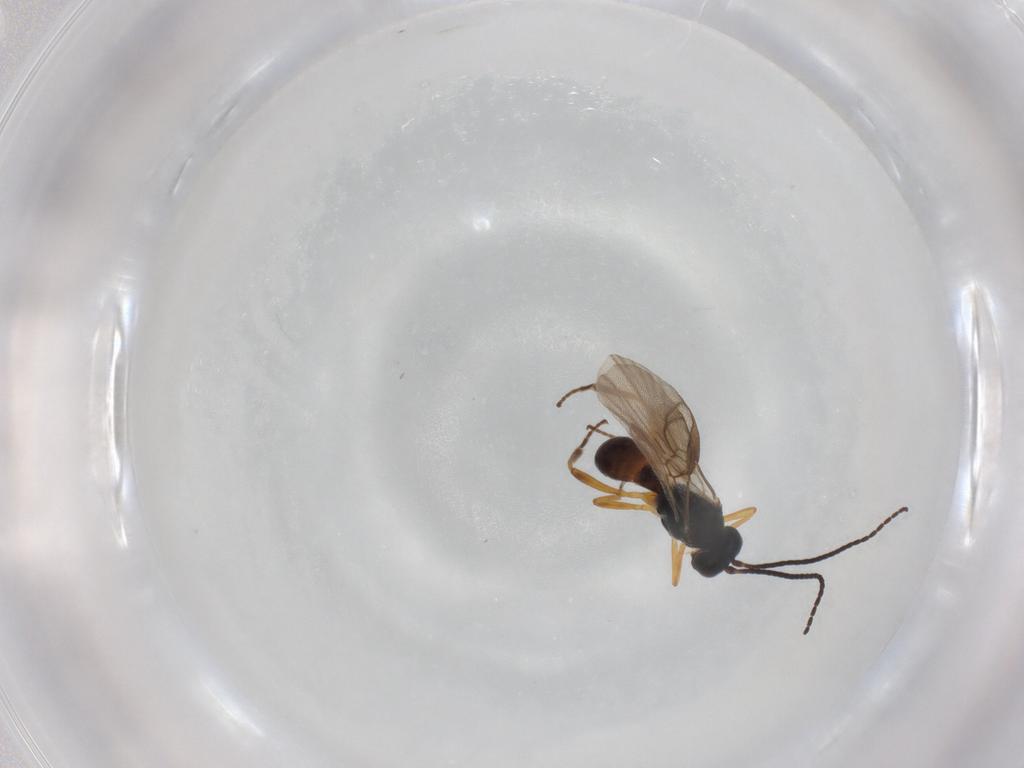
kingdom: Animalia
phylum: Arthropoda
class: Insecta
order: Hymenoptera
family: Braconidae
